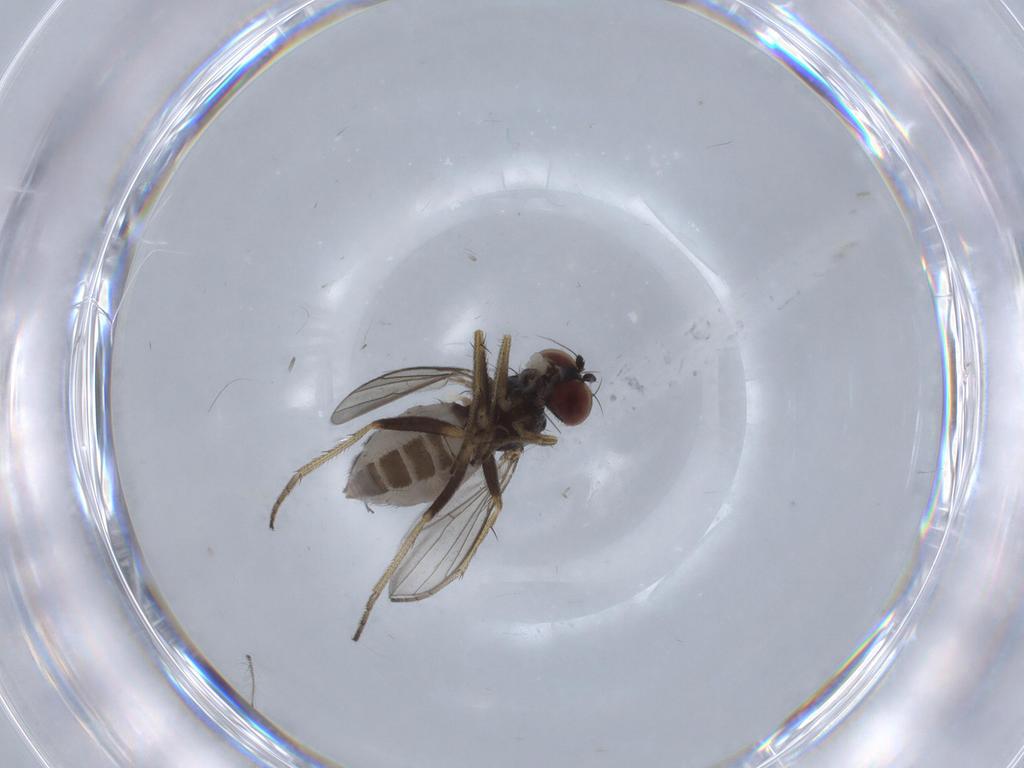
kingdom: Animalia
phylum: Arthropoda
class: Insecta
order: Diptera
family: Chironomidae
